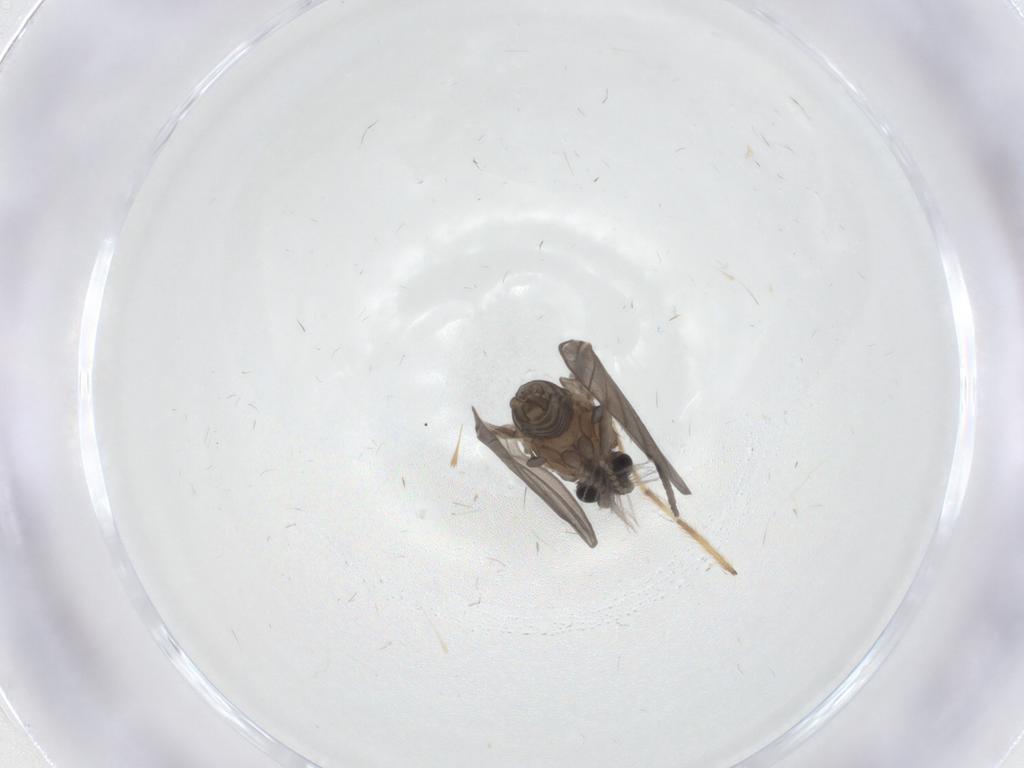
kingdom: Animalia
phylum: Arthropoda
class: Insecta
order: Diptera
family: Psychodidae
